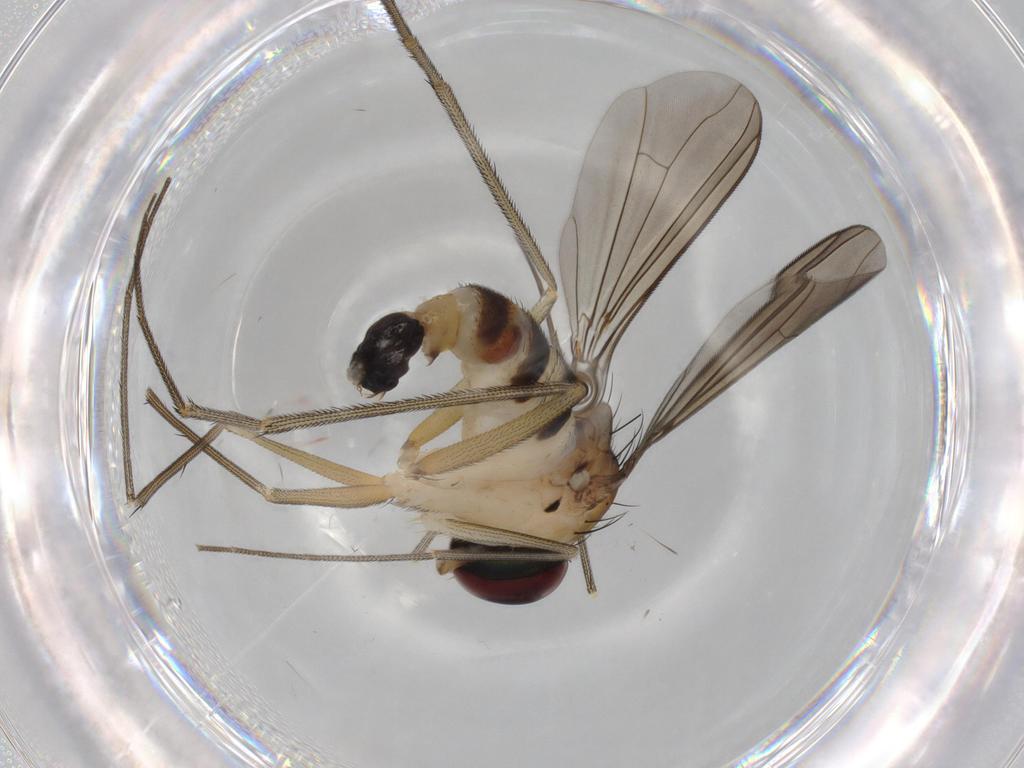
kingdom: Animalia
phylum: Arthropoda
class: Insecta
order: Diptera
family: Dolichopodidae
